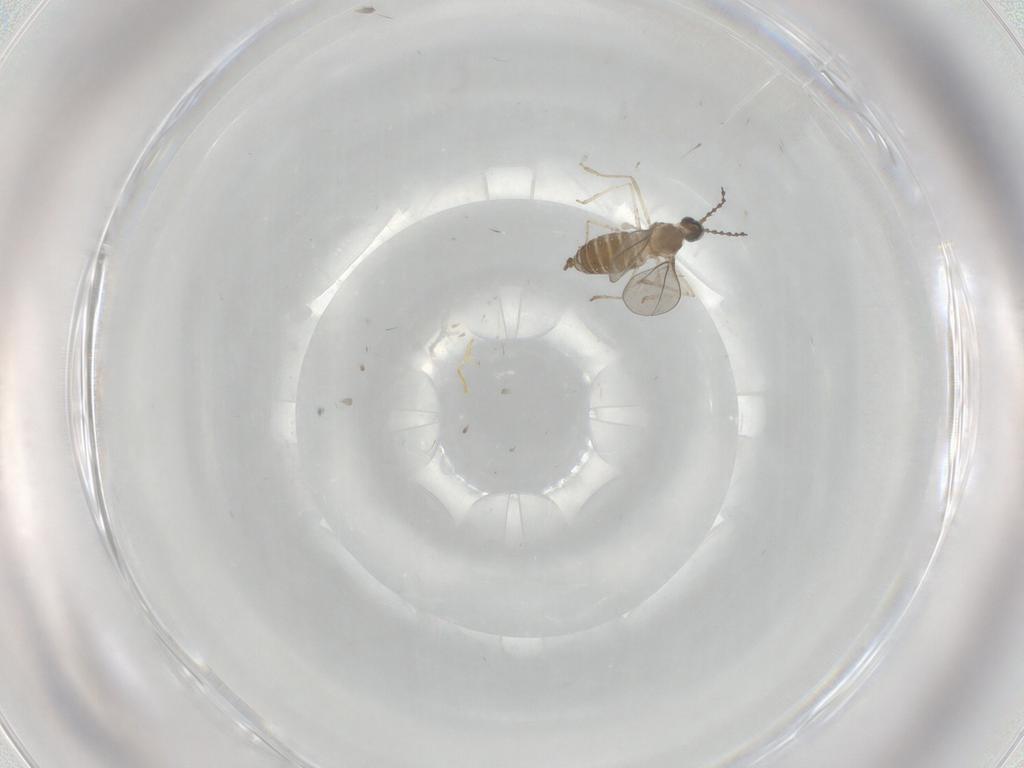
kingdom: Animalia
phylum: Arthropoda
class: Insecta
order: Diptera
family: Cecidomyiidae
